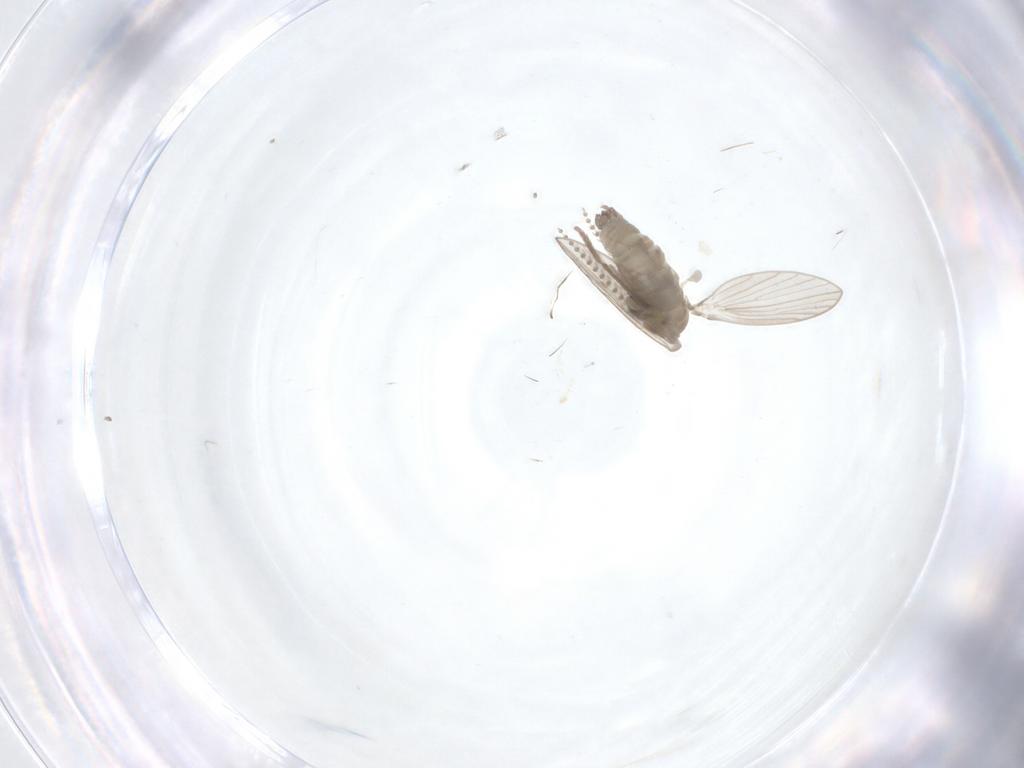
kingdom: Animalia
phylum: Arthropoda
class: Insecta
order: Diptera
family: Psychodidae
